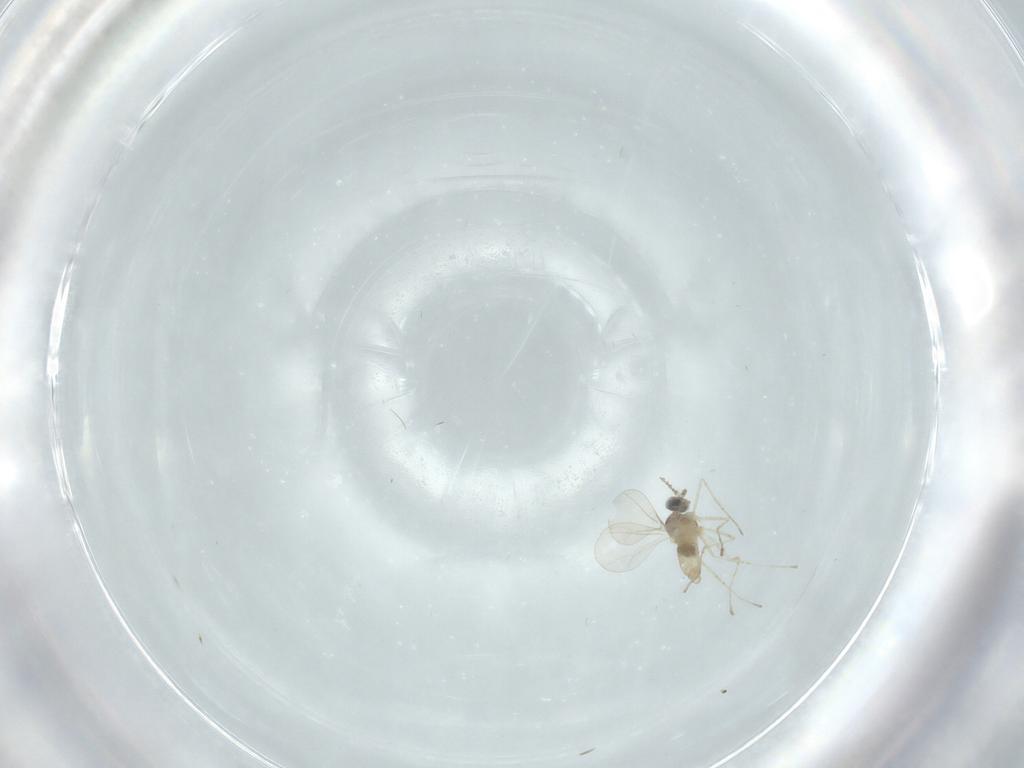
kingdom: Animalia
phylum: Arthropoda
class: Insecta
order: Diptera
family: Cecidomyiidae
